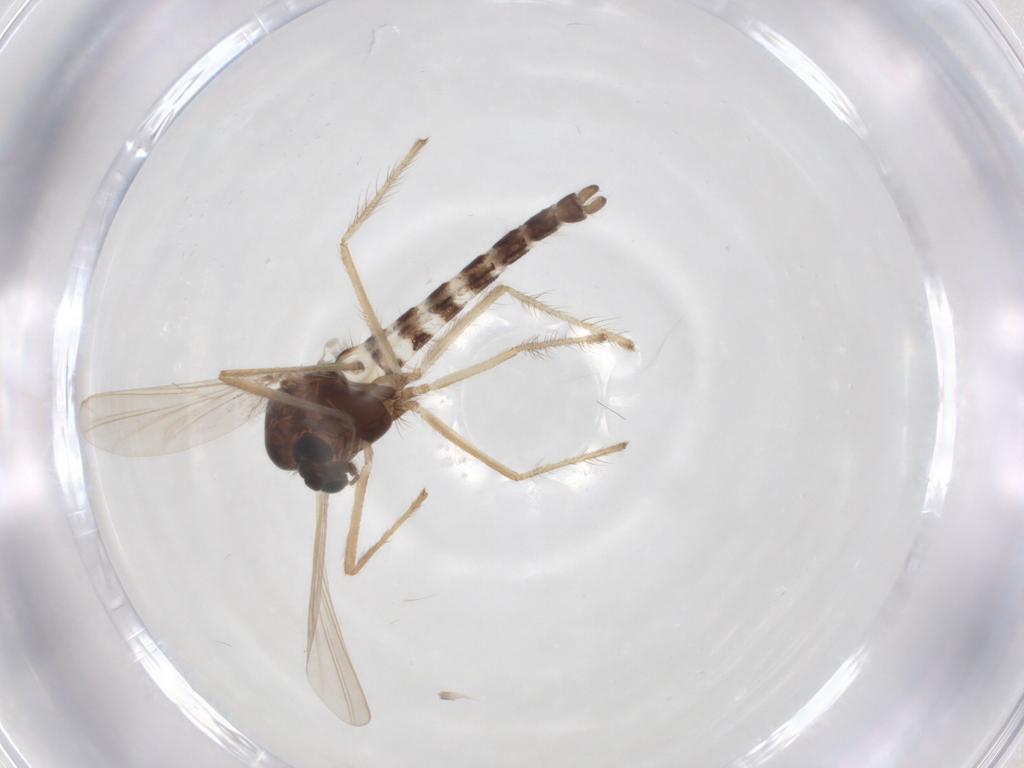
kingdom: Animalia
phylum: Arthropoda
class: Insecta
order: Diptera
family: Chironomidae
